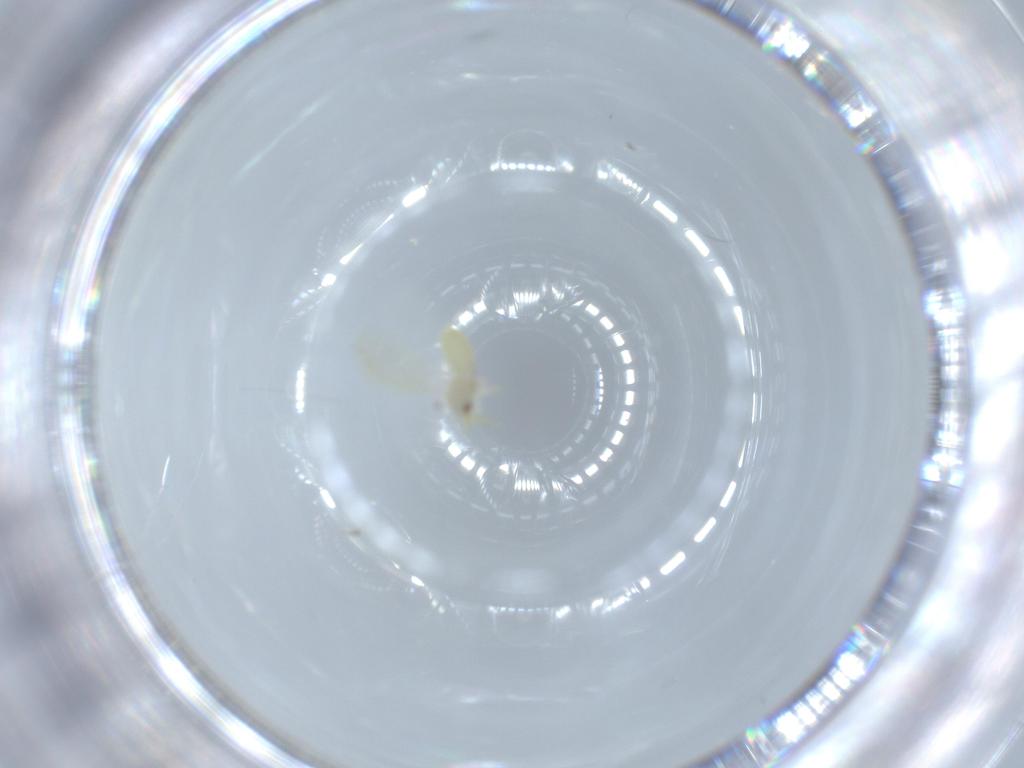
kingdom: Animalia
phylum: Arthropoda
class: Insecta
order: Hemiptera
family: Aleyrodidae
